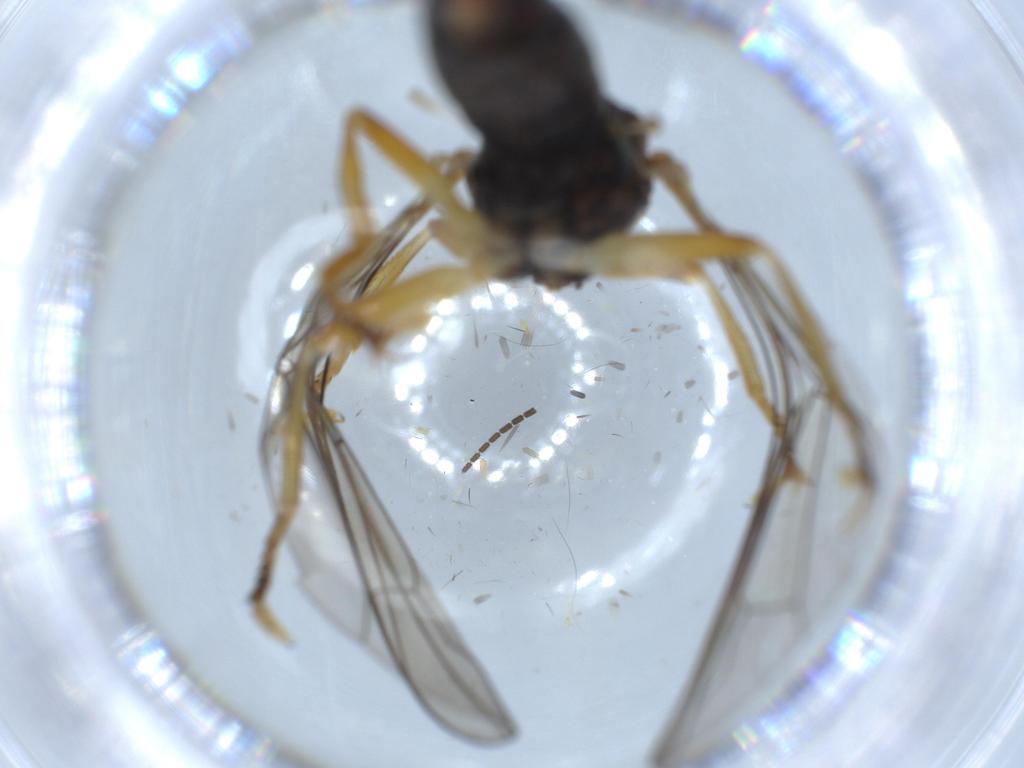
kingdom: Animalia
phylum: Arthropoda
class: Insecta
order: Diptera
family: Pipunculidae
